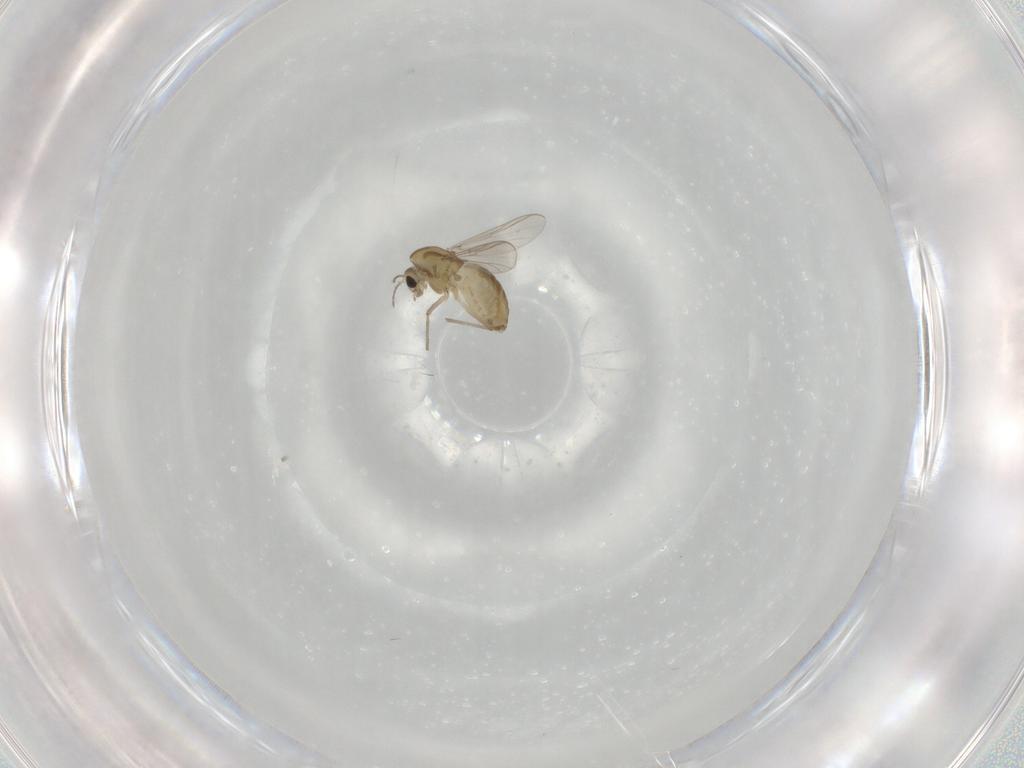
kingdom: Animalia
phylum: Arthropoda
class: Insecta
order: Diptera
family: Chironomidae
